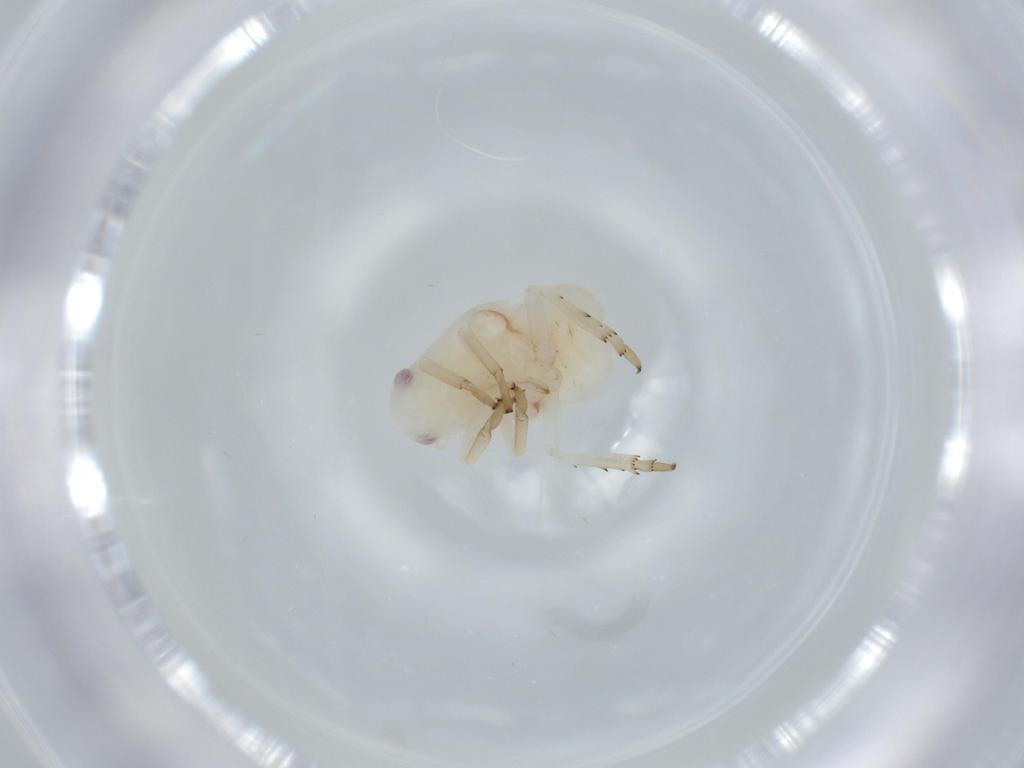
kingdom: Animalia
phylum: Arthropoda
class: Insecta
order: Hemiptera
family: Flatidae
